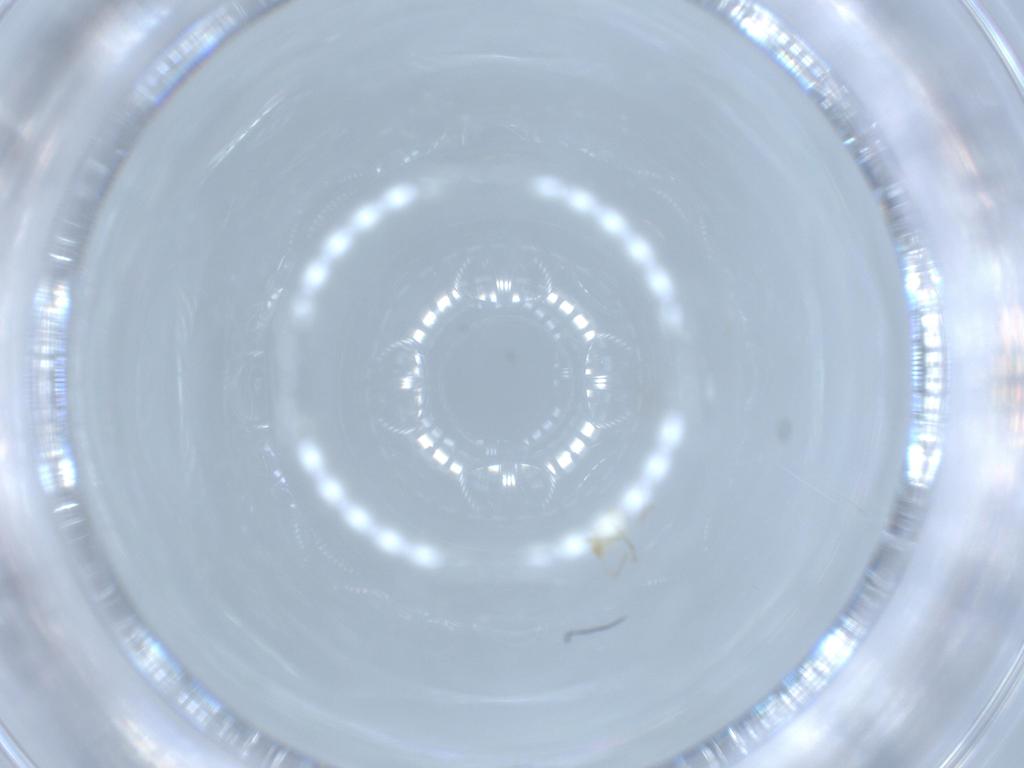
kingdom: Animalia
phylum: Arthropoda
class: Arachnida
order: Trombidiformes
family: Erythraeidae
